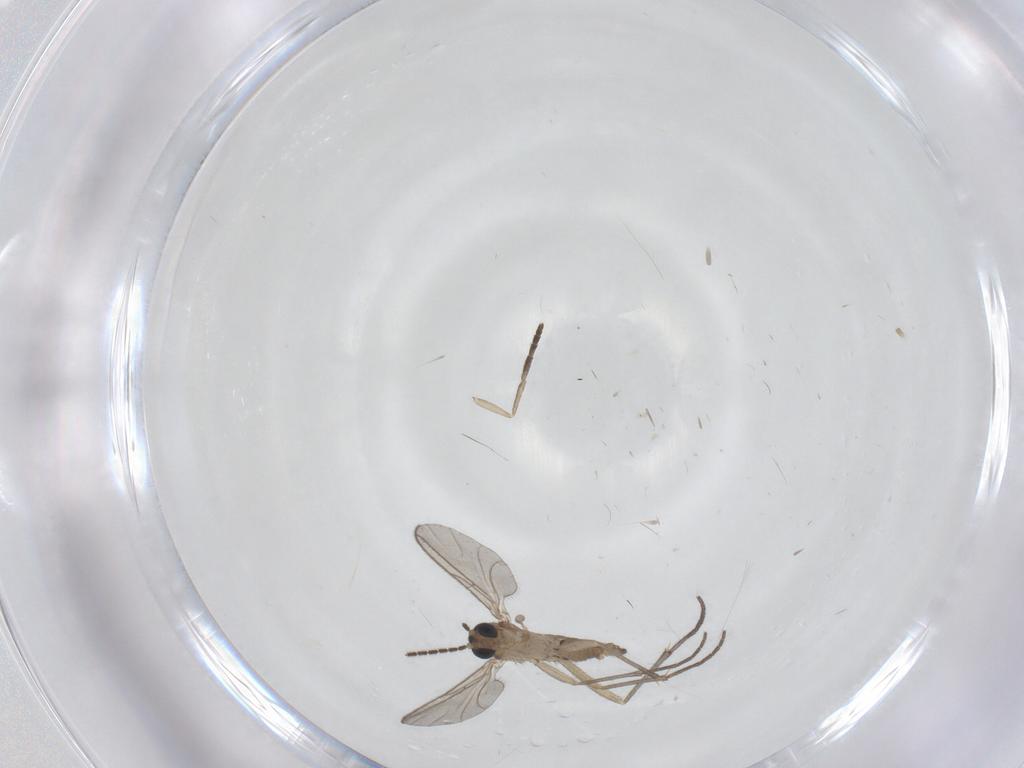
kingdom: Animalia
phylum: Arthropoda
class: Insecta
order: Diptera
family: Sciaridae
